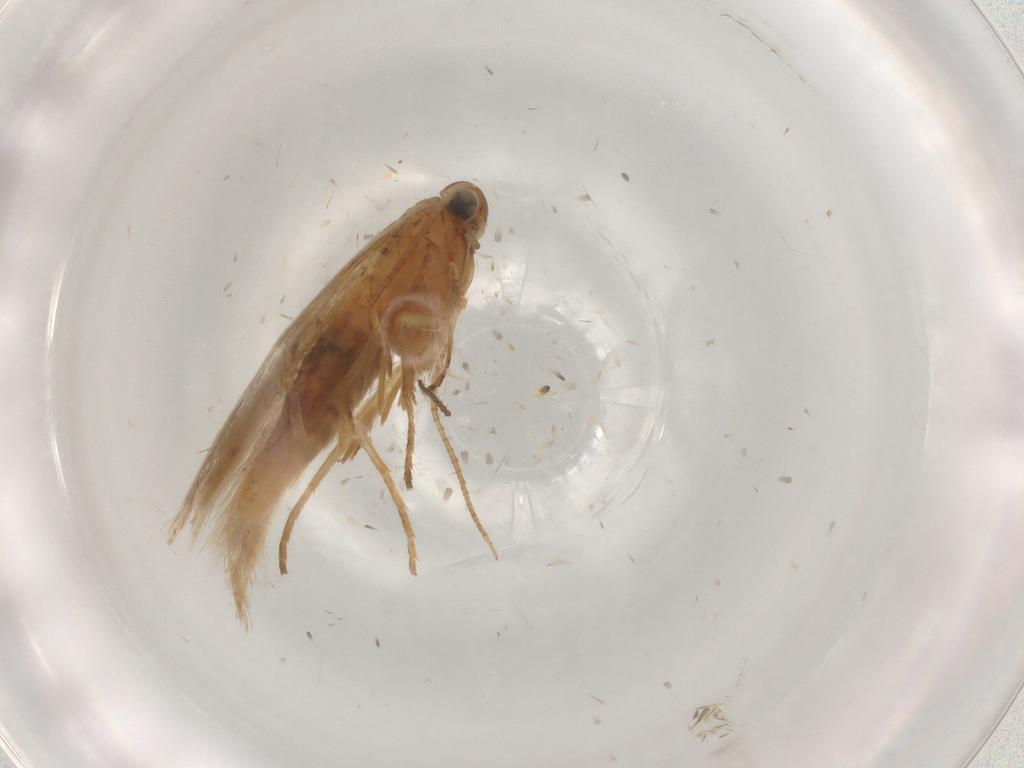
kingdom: Animalia
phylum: Arthropoda
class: Insecta
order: Lepidoptera
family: Gelechiidae
